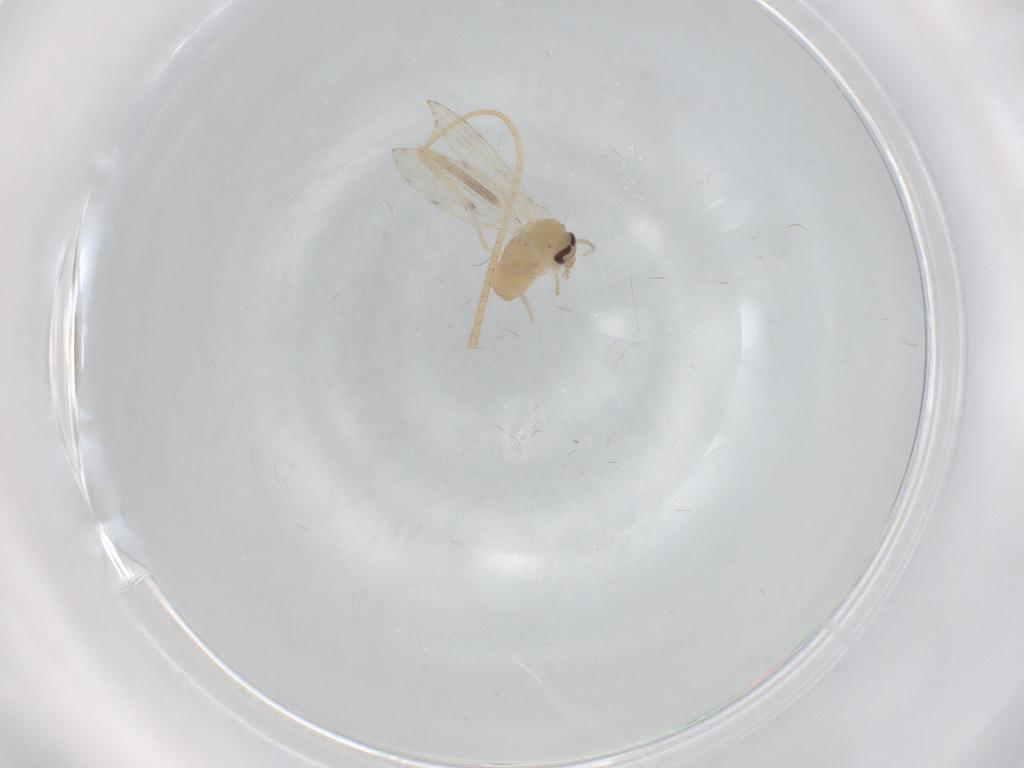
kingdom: Animalia
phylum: Arthropoda
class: Insecta
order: Diptera
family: Psychodidae
